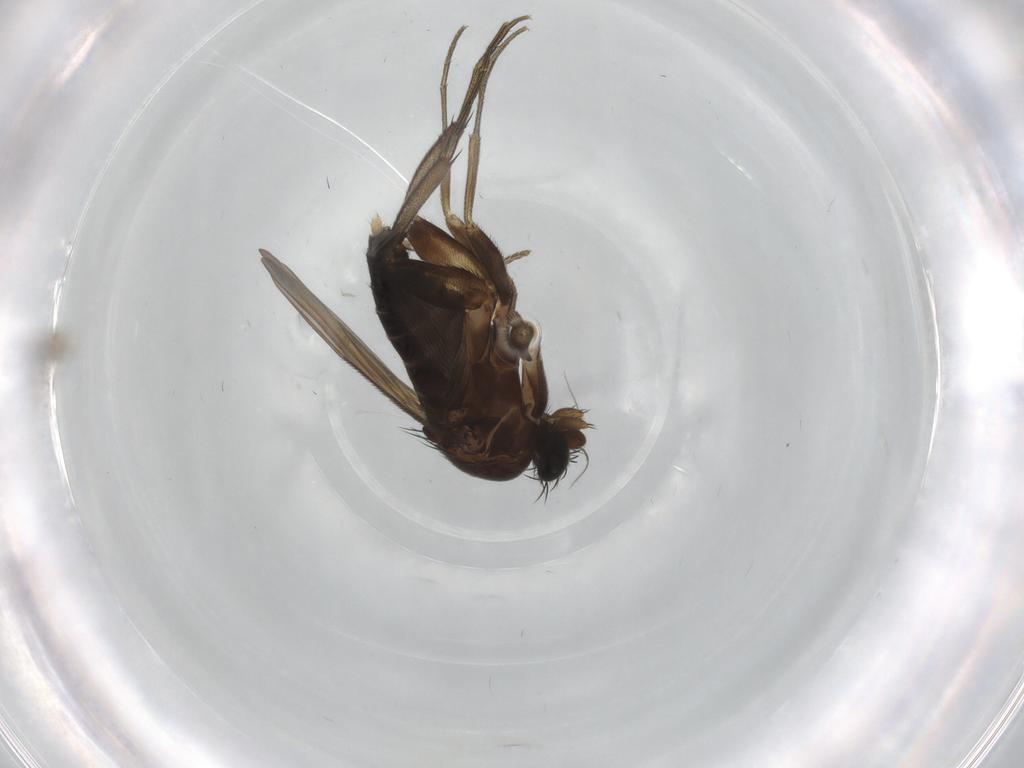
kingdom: Animalia
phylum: Arthropoda
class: Insecta
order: Diptera
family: Phoridae
